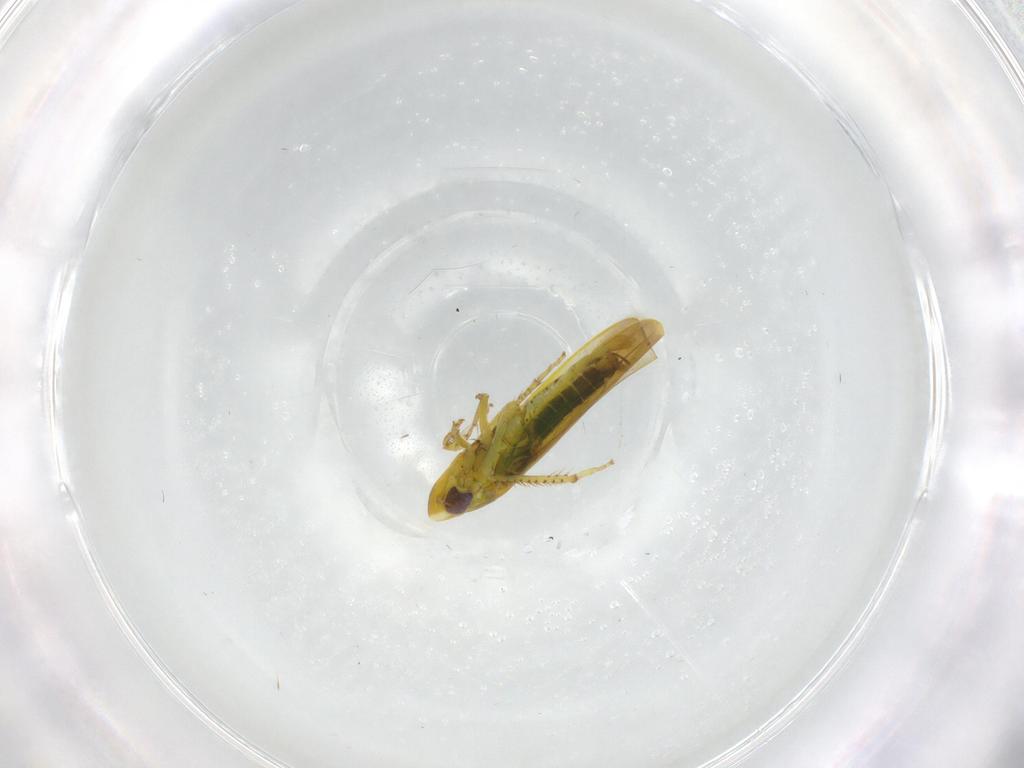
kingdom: Animalia
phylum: Arthropoda
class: Insecta
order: Hemiptera
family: Cicadellidae
